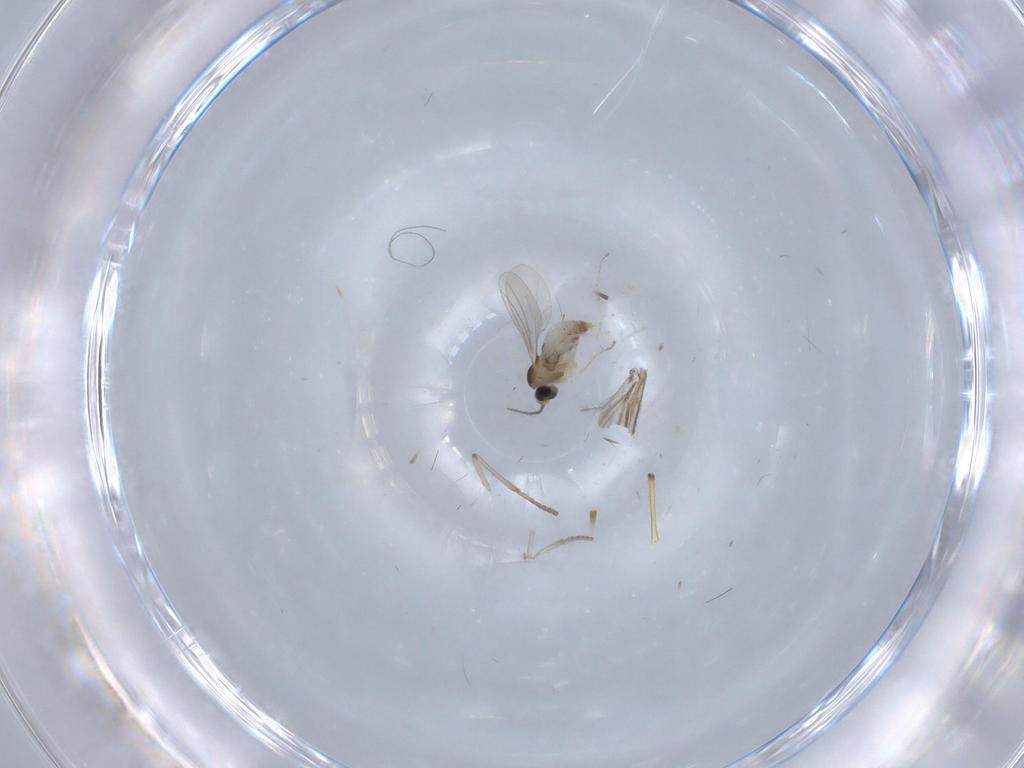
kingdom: Animalia
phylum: Arthropoda
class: Insecta
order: Diptera
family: Cecidomyiidae
